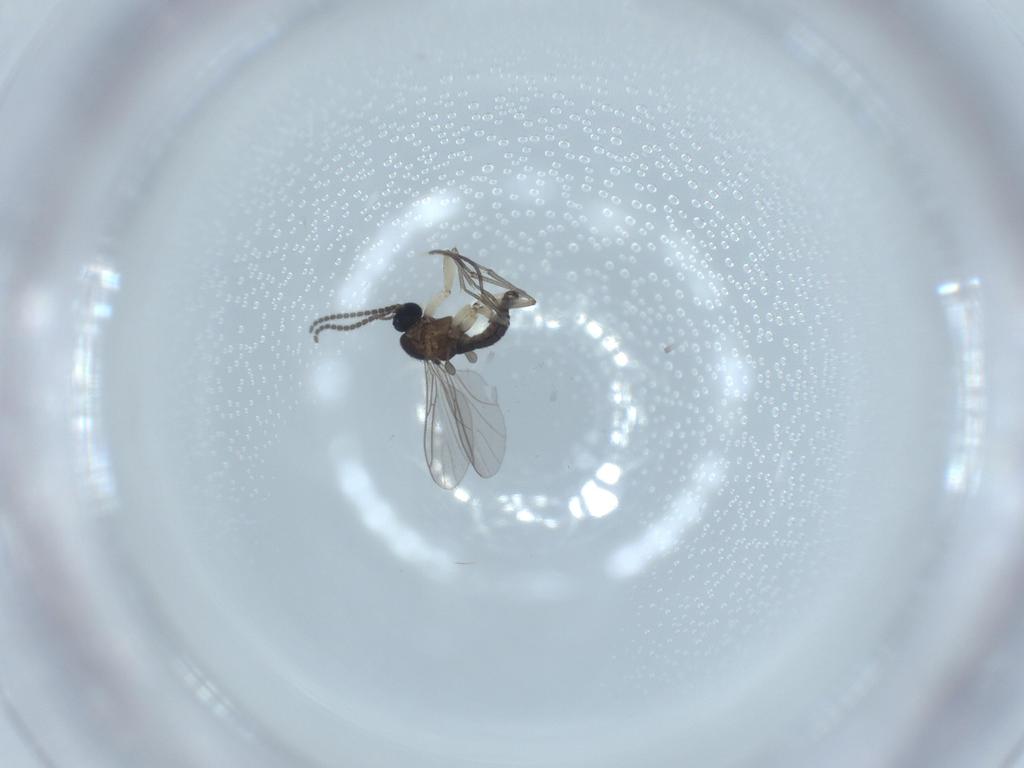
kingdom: Animalia
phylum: Arthropoda
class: Insecta
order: Diptera
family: Sciaridae
